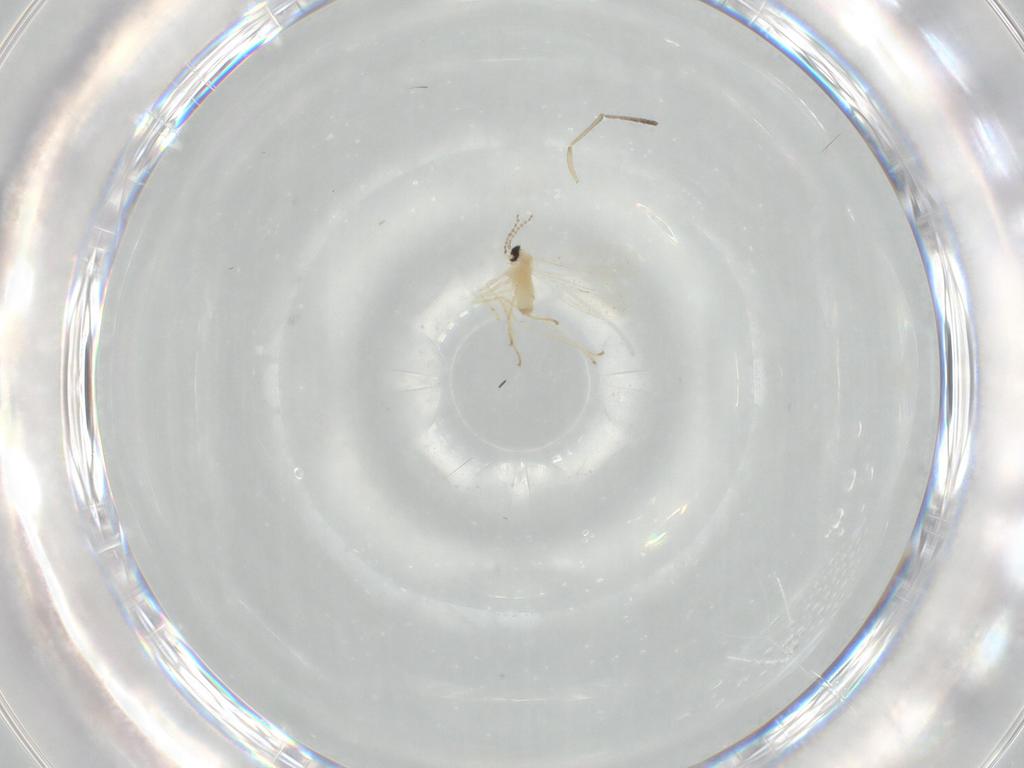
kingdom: Animalia
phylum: Arthropoda
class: Insecta
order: Diptera
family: Cecidomyiidae
